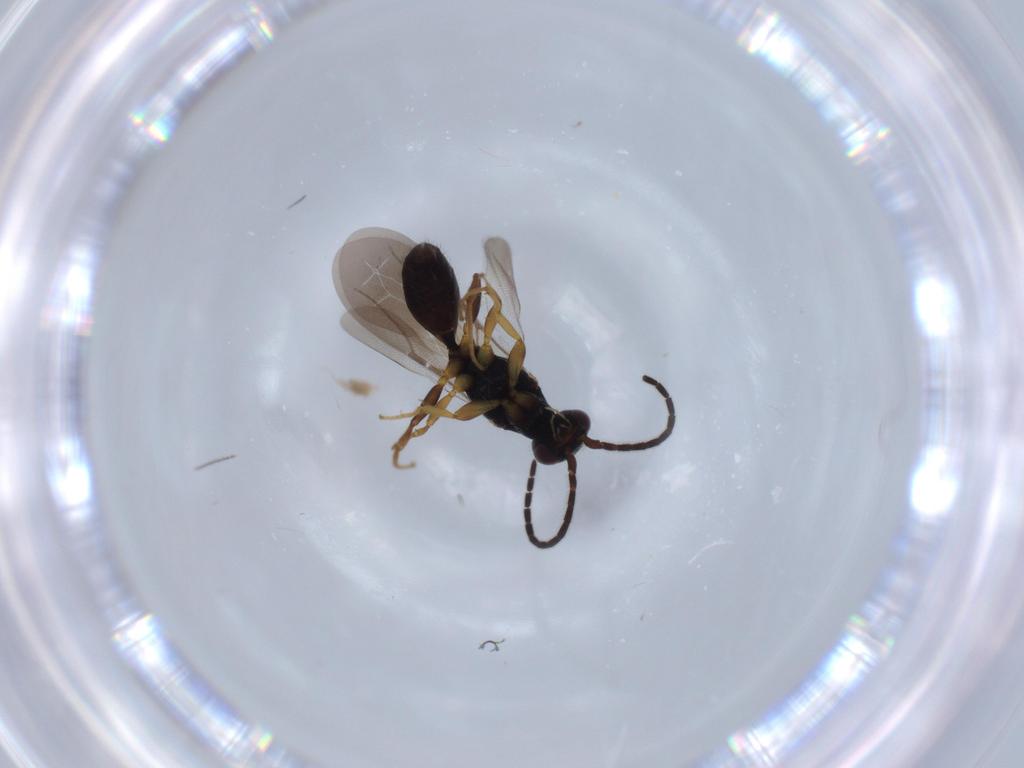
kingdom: Animalia
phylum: Arthropoda
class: Insecta
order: Hymenoptera
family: Bethylidae
